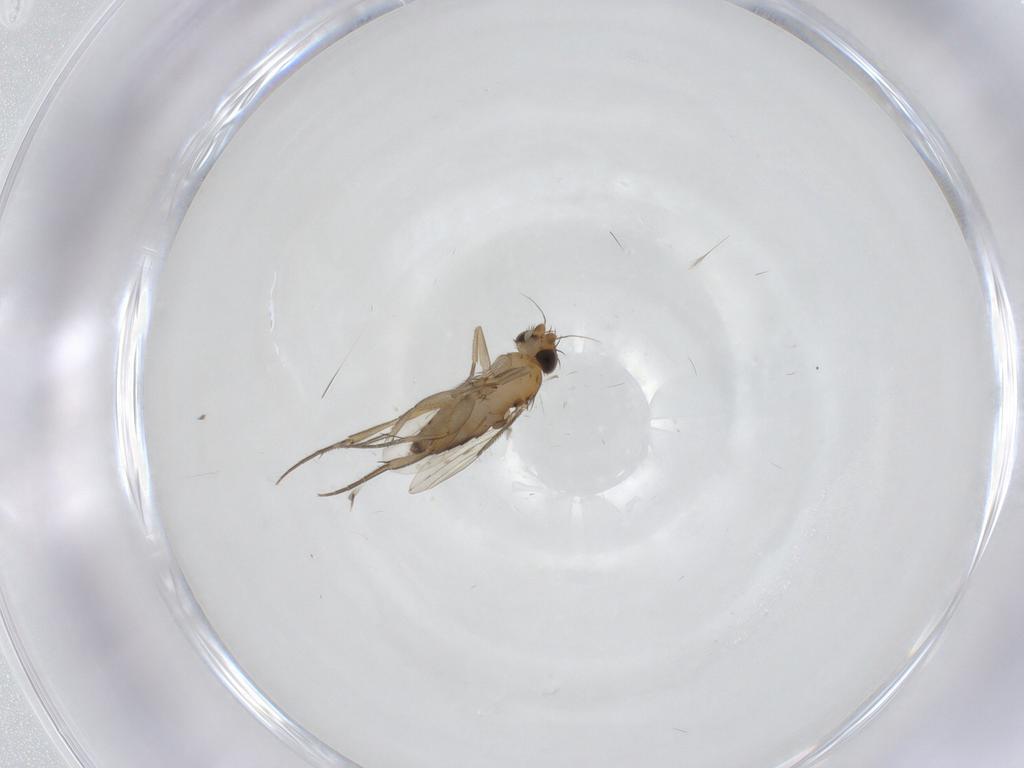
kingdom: Animalia
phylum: Arthropoda
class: Insecta
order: Diptera
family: Phoridae
